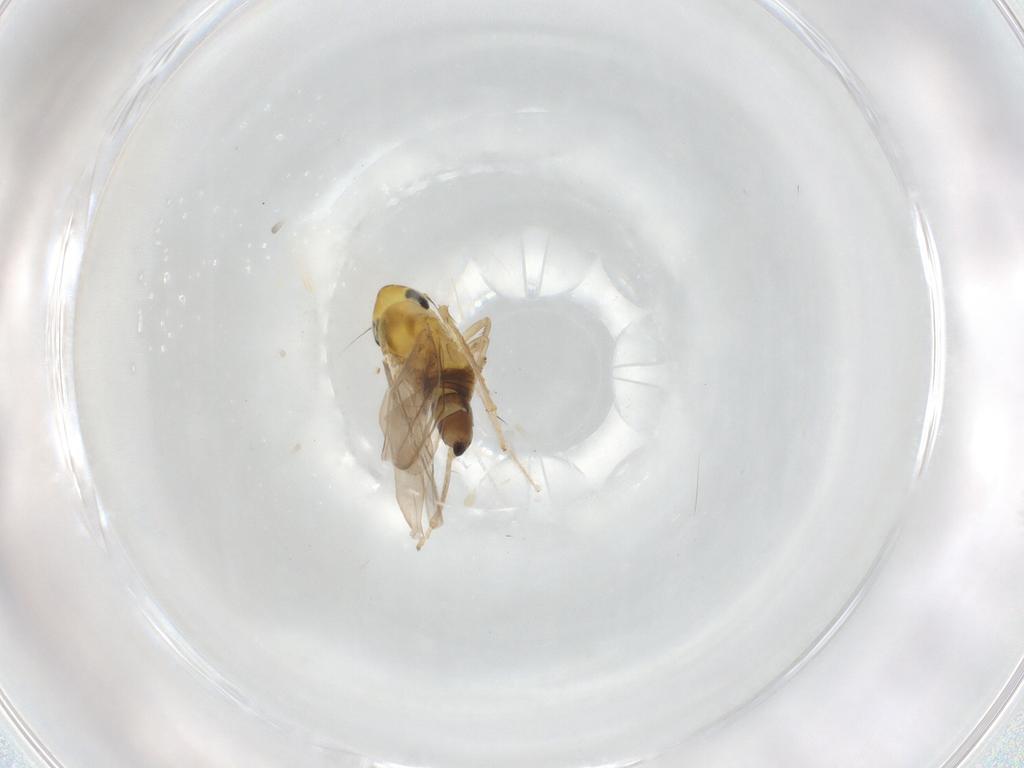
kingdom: Animalia
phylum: Arthropoda
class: Insecta
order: Hemiptera
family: Cicadellidae
